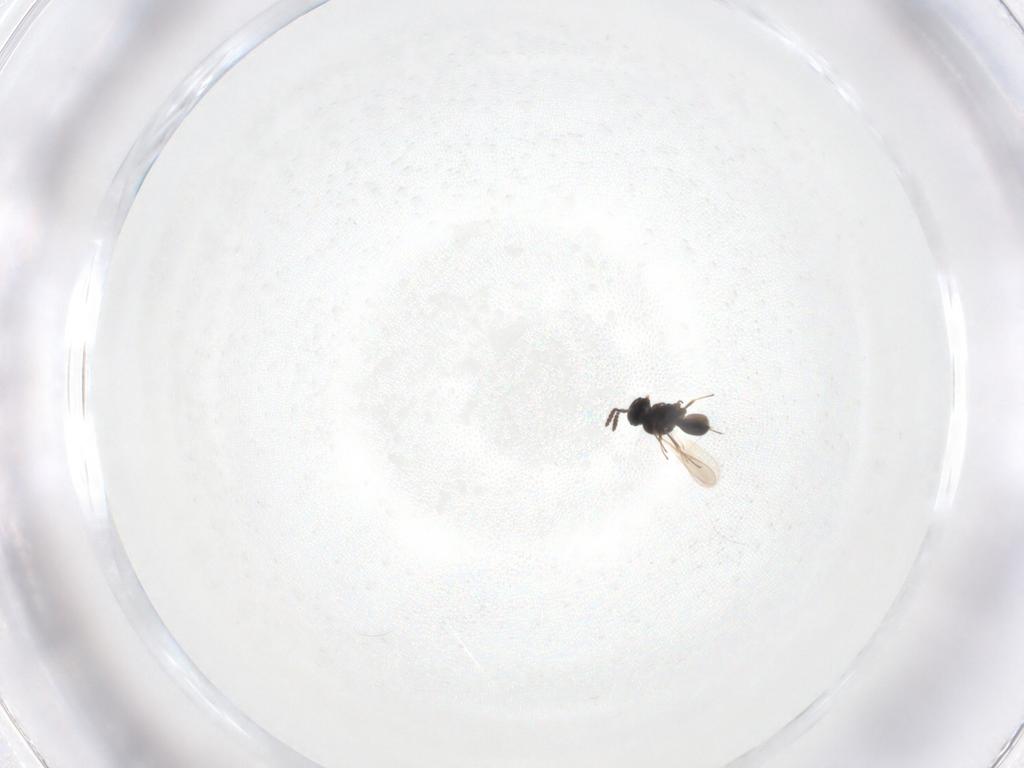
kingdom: Animalia
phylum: Arthropoda
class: Insecta
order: Hymenoptera
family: Scelionidae
